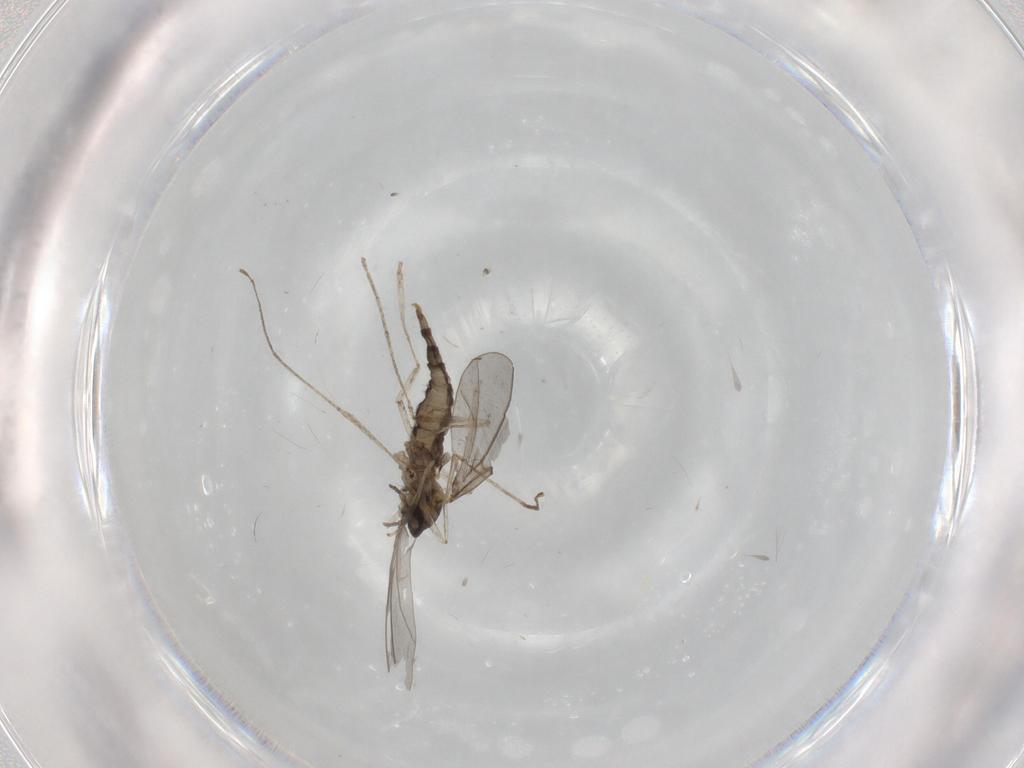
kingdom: Animalia
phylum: Arthropoda
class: Insecta
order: Diptera
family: Cecidomyiidae
